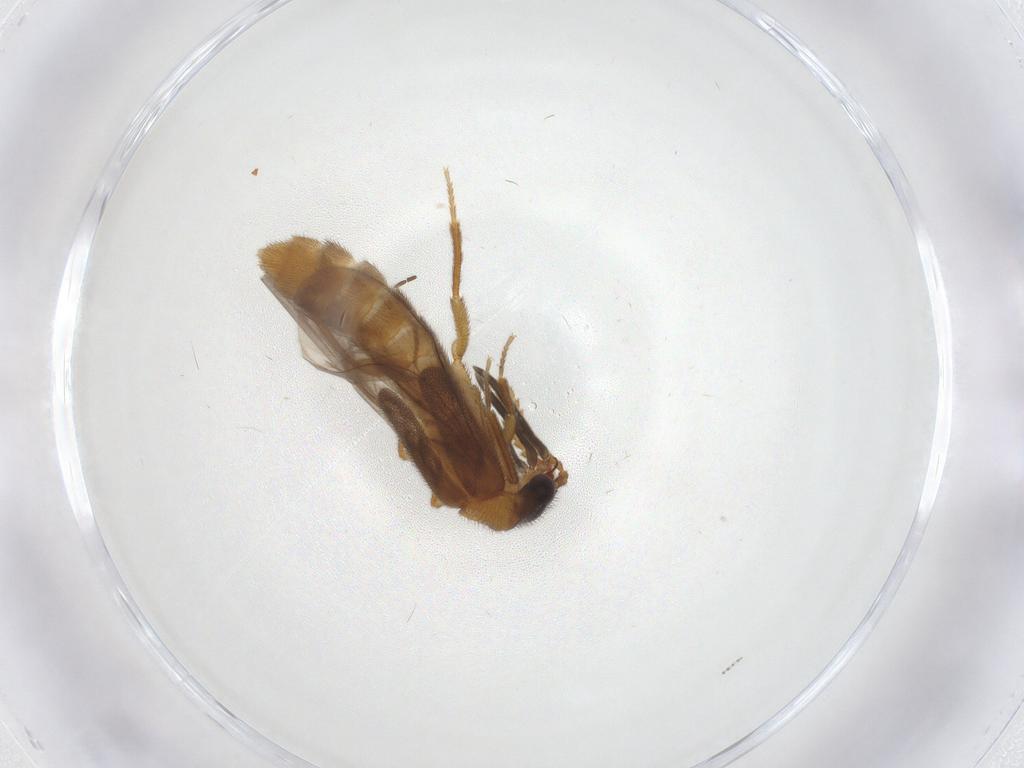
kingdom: Animalia
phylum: Arthropoda
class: Insecta
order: Coleoptera
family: Omethidae
